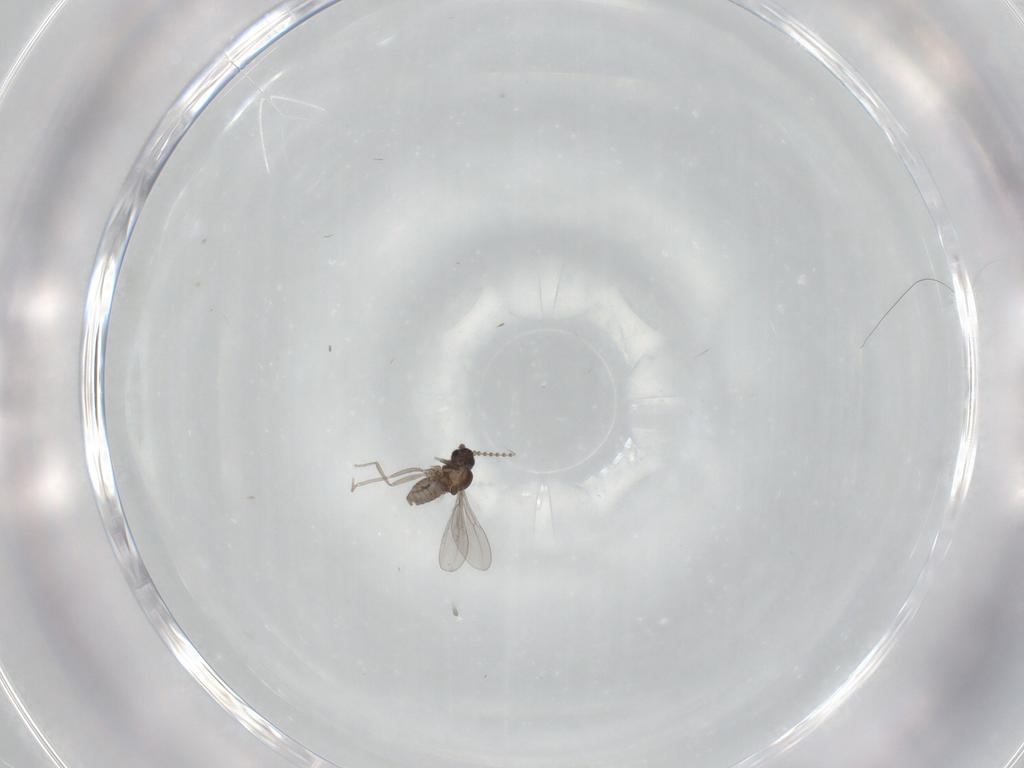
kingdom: Animalia
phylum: Arthropoda
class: Insecta
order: Diptera
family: Cecidomyiidae
